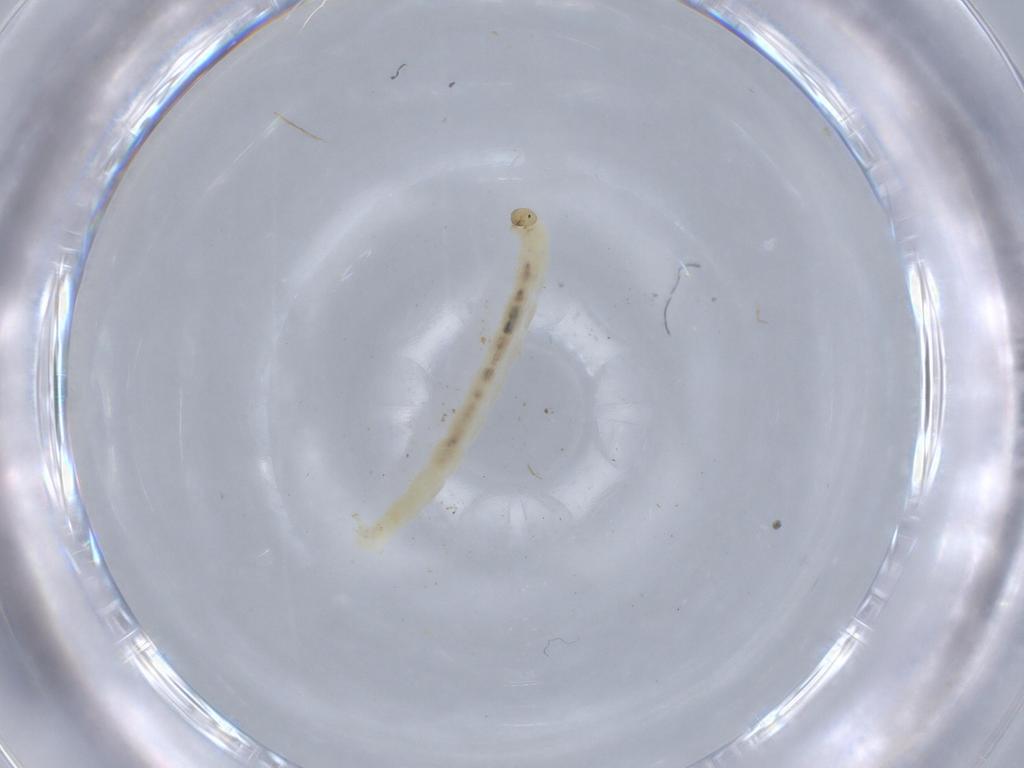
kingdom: Animalia
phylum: Arthropoda
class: Insecta
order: Diptera
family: Chironomidae
